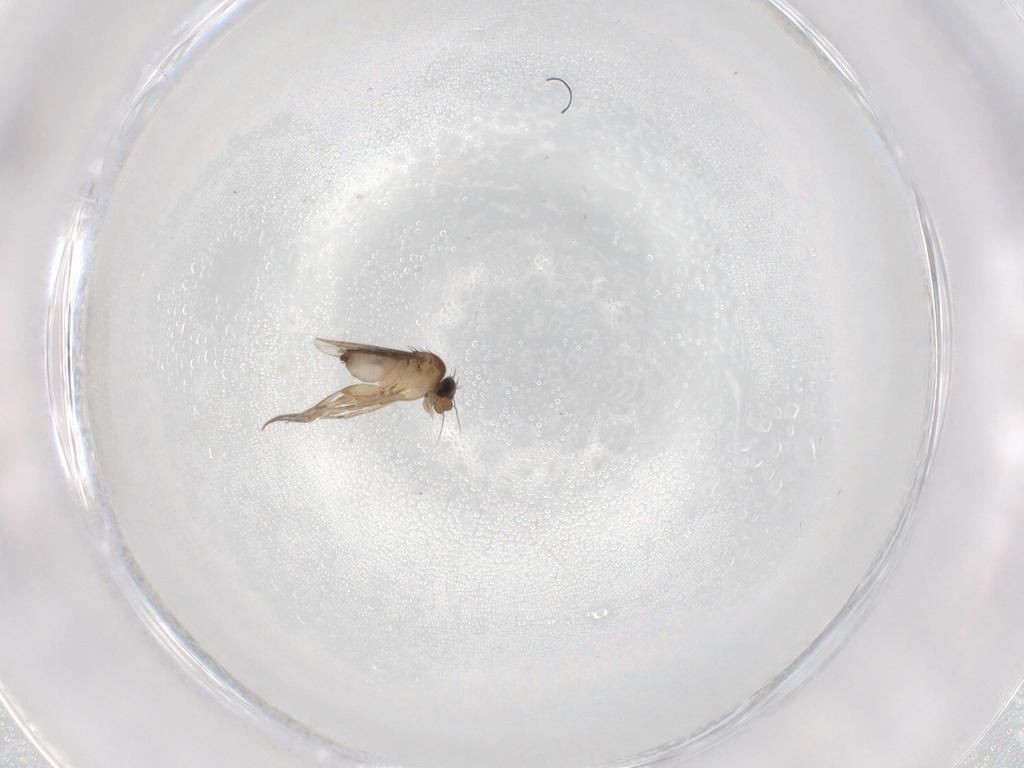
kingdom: Animalia
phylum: Arthropoda
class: Insecta
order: Diptera
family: Phoridae
